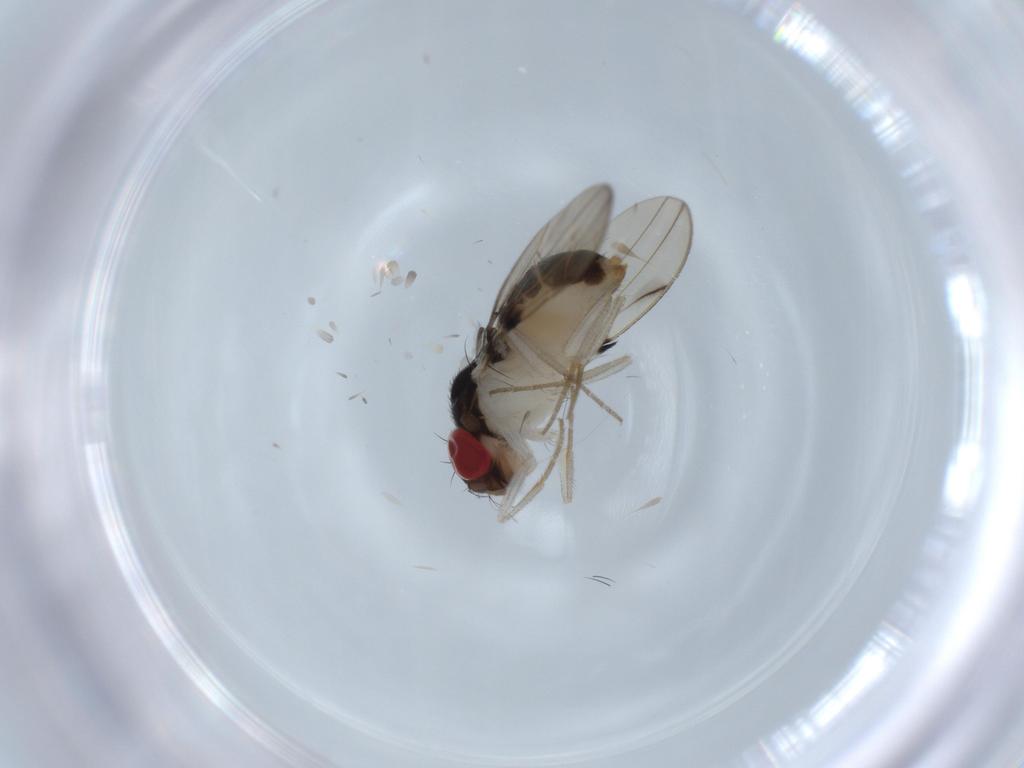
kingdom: Animalia
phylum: Arthropoda
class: Insecta
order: Diptera
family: Drosophilidae
